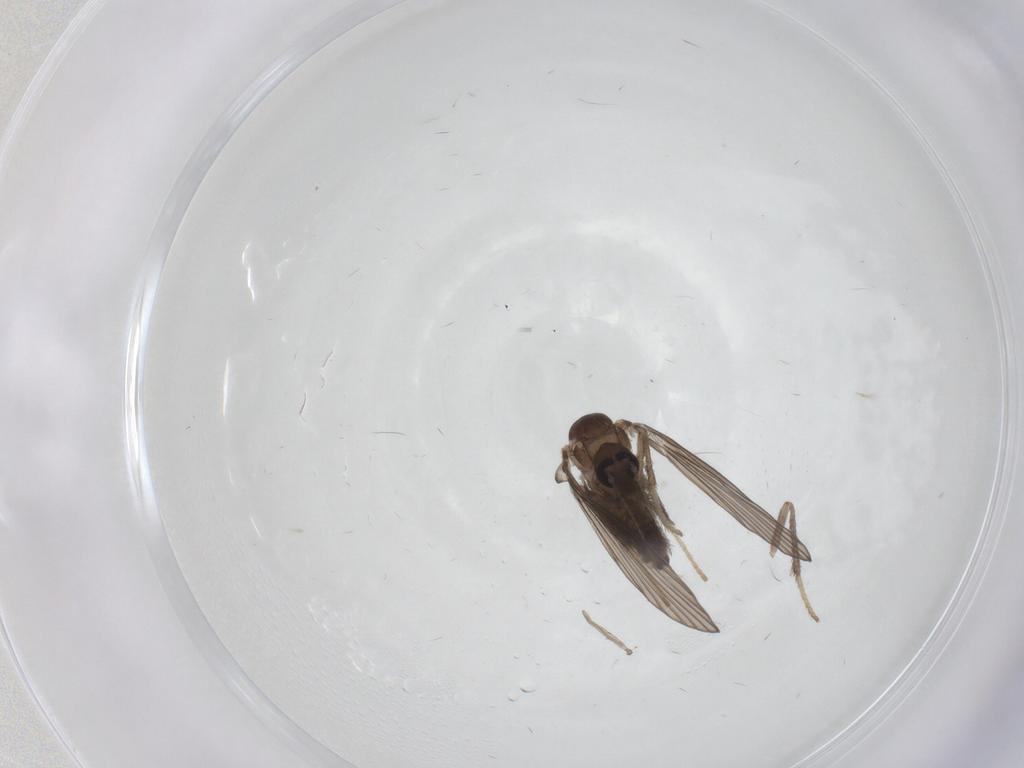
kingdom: Animalia
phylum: Arthropoda
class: Insecta
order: Diptera
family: Psychodidae
